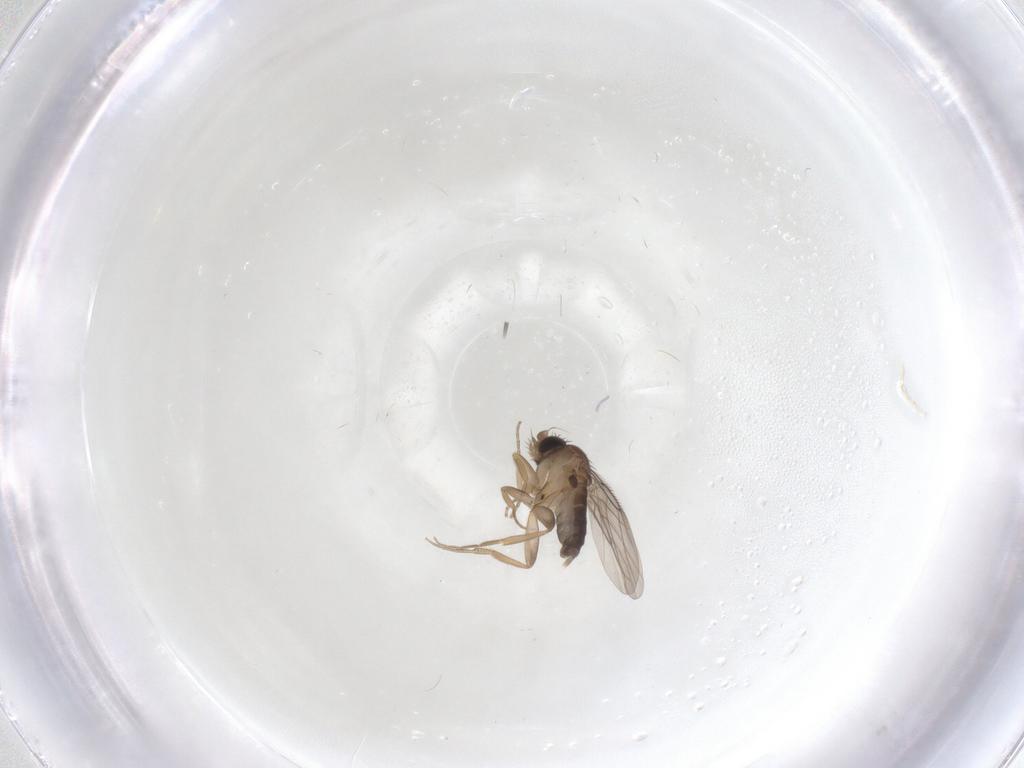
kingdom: Animalia
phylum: Arthropoda
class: Insecta
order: Diptera
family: Phoridae
